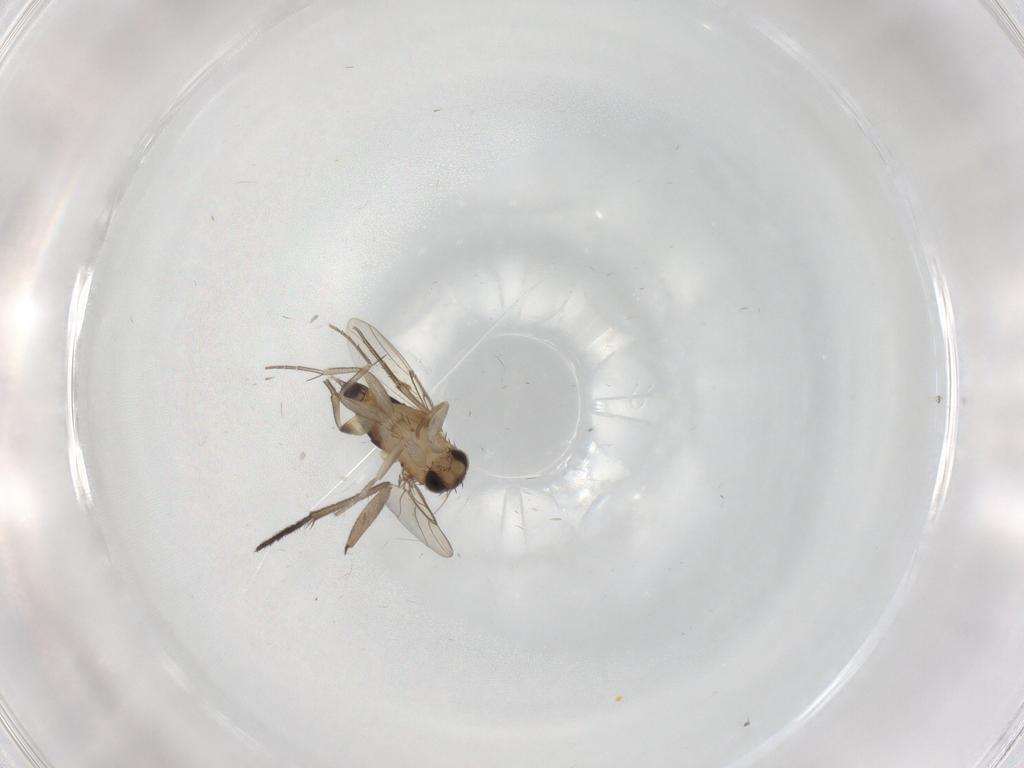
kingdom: Animalia
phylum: Arthropoda
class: Insecta
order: Diptera
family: Phoridae
